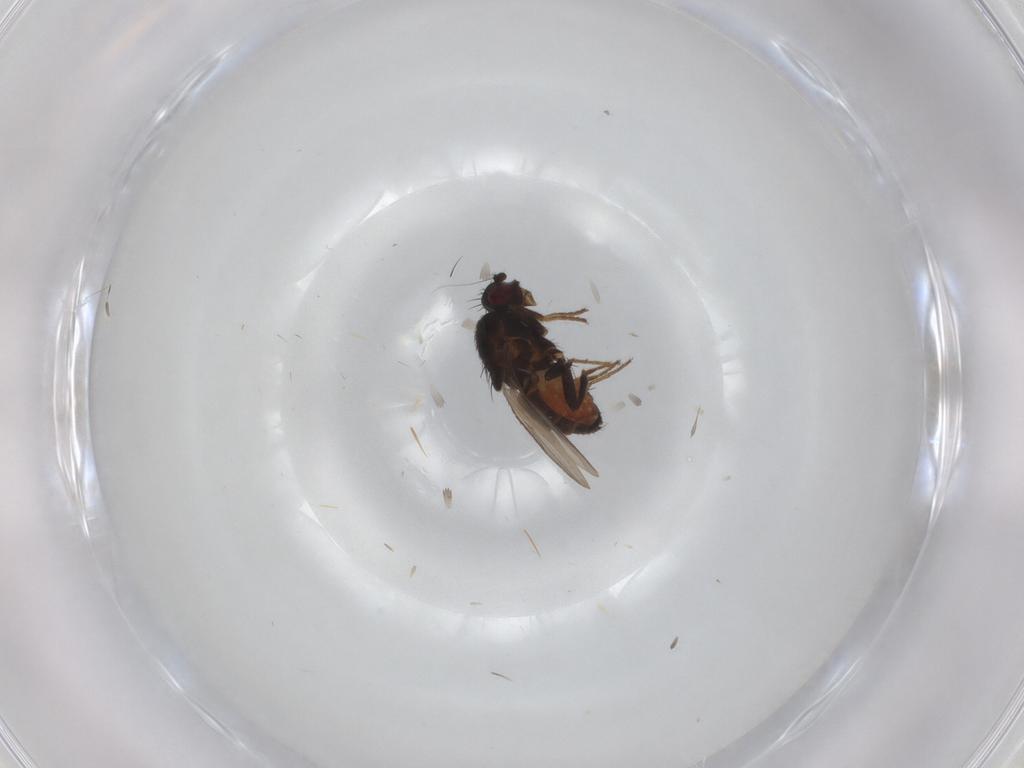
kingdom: Animalia
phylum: Arthropoda
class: Insecta
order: Diptera
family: Sphaeroceridae
